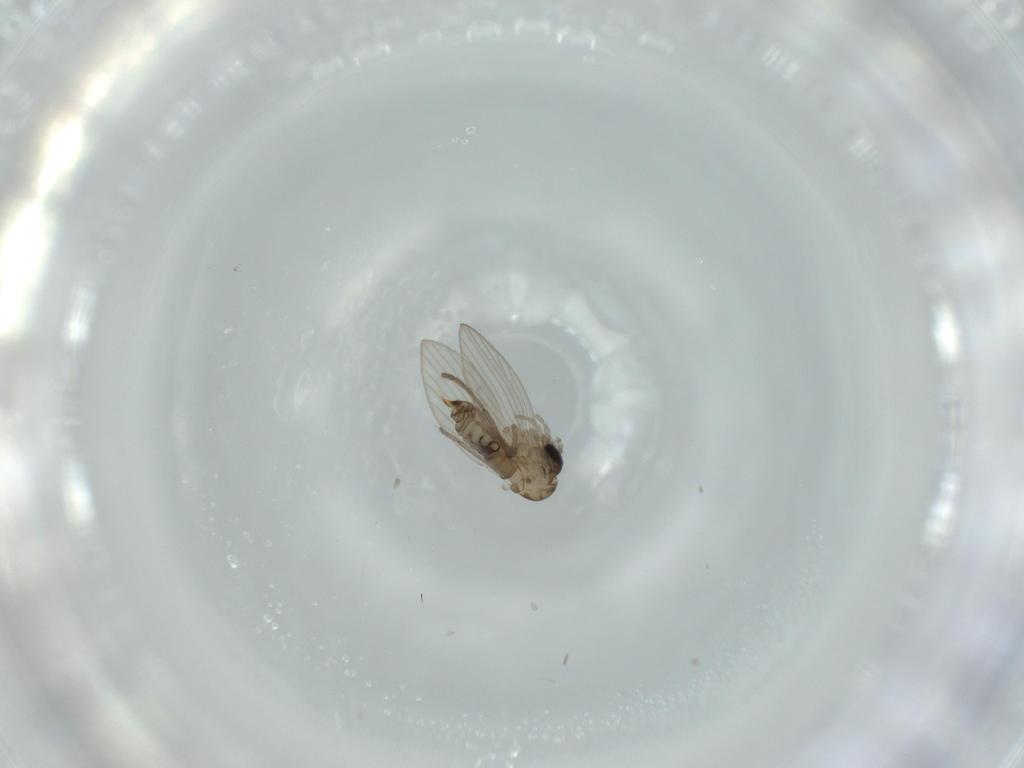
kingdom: Animalia
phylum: Arthropoda
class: Insecta
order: Diptera
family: Psychodidae
